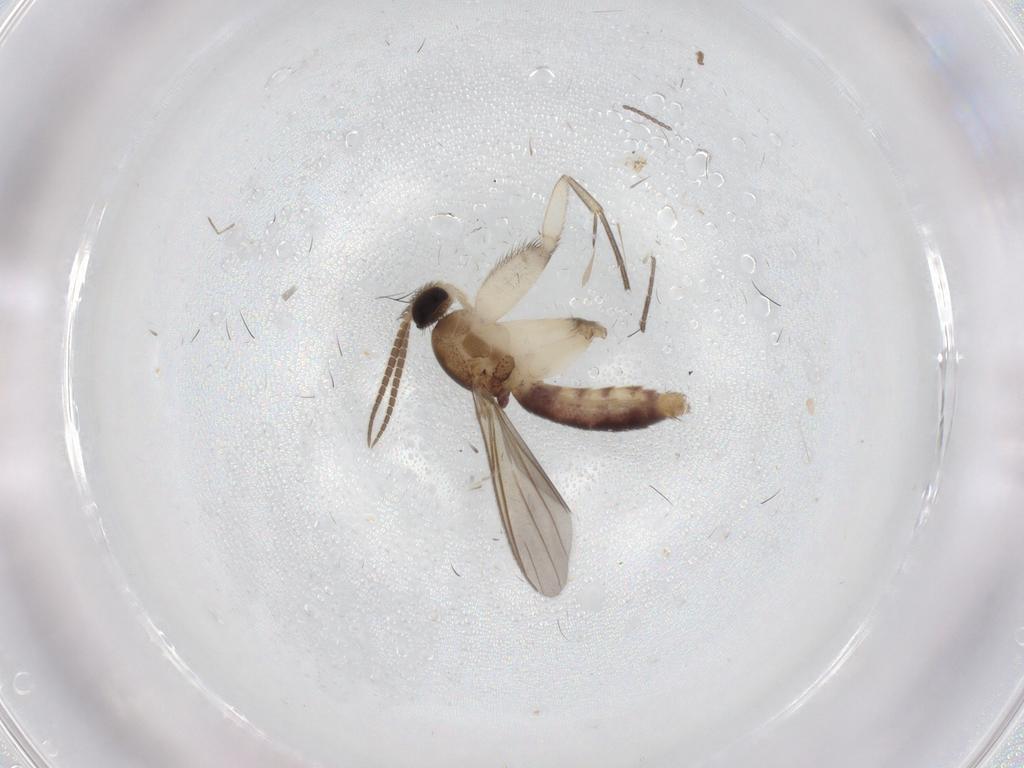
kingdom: Animalia
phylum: Arthropoda
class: Insecta
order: Diptera
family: Mycetophilidae
